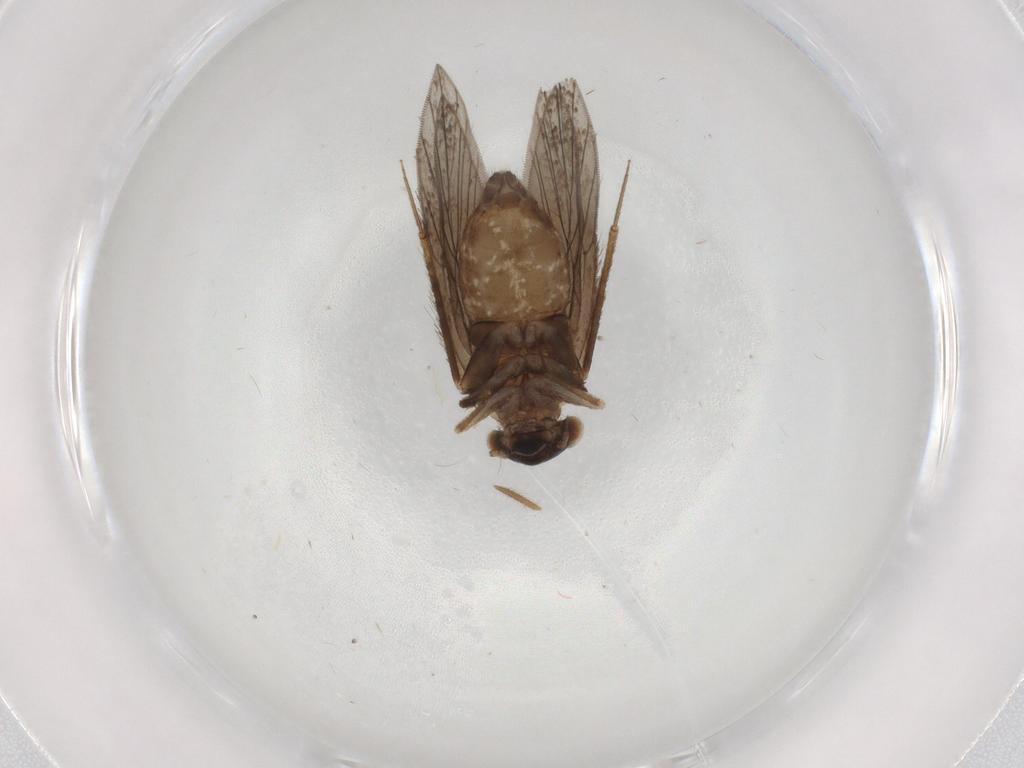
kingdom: Animalia
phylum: Arthropoda
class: Insecta
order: Psocodea
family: Lepidopsocidae
